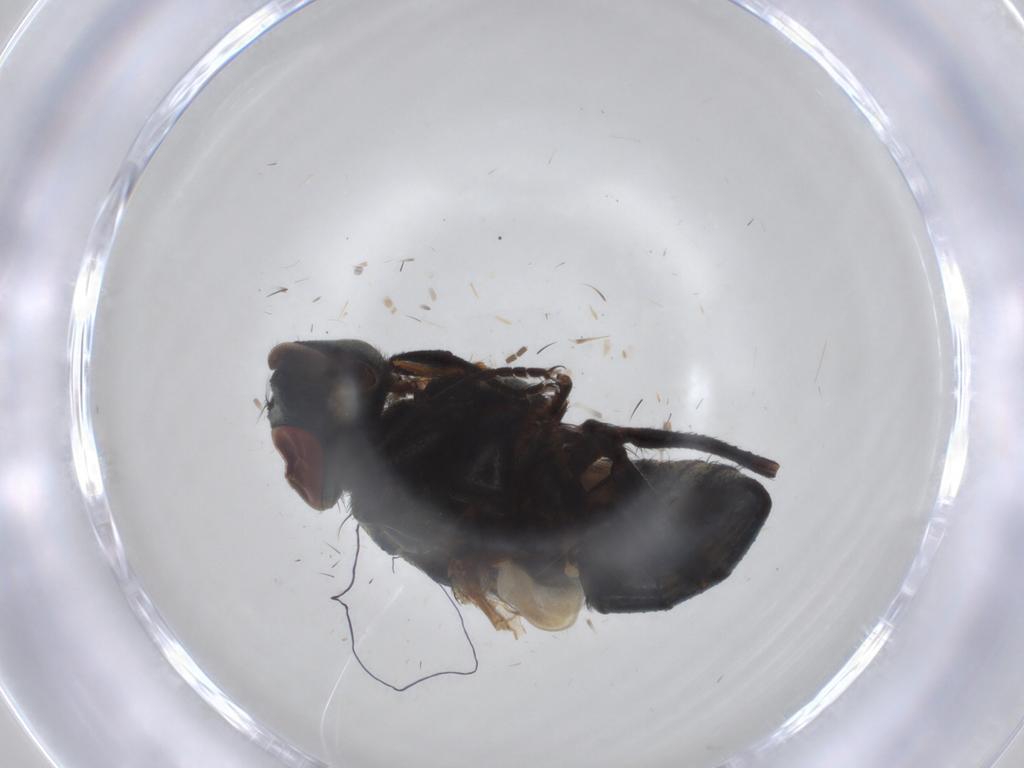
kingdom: Animalia
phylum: Arthropoda
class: Insecta
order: Diptera
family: Muscidae
